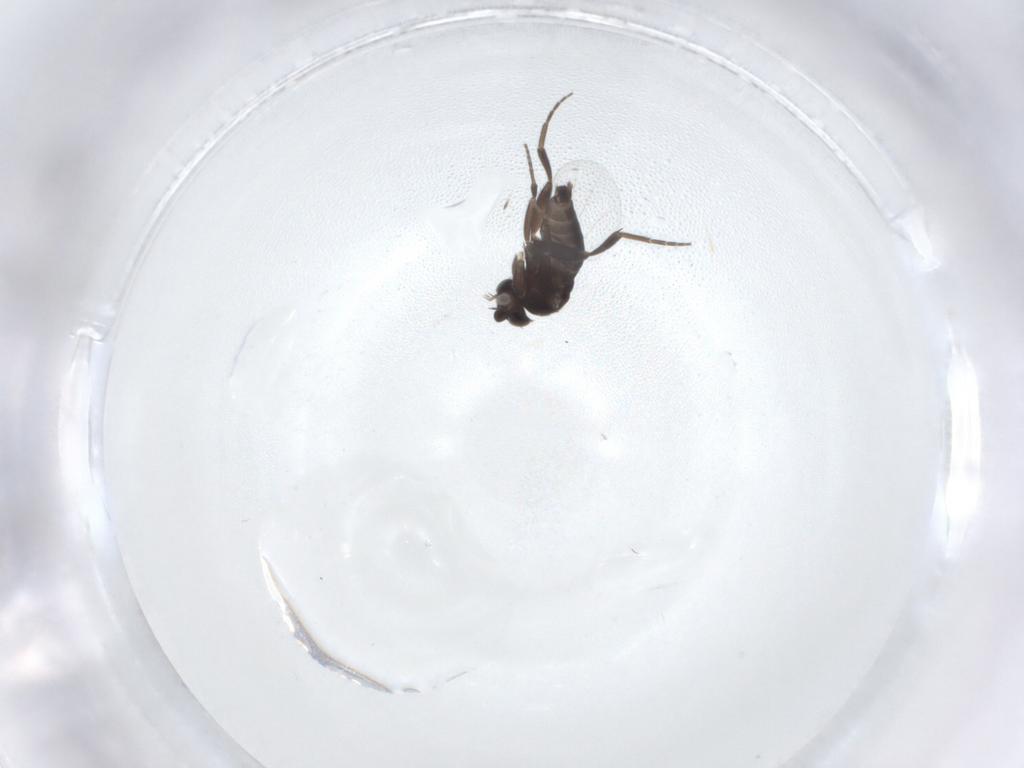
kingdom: Animalia
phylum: Arthropoda
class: Insecta
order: Diptera
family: Phoridae
